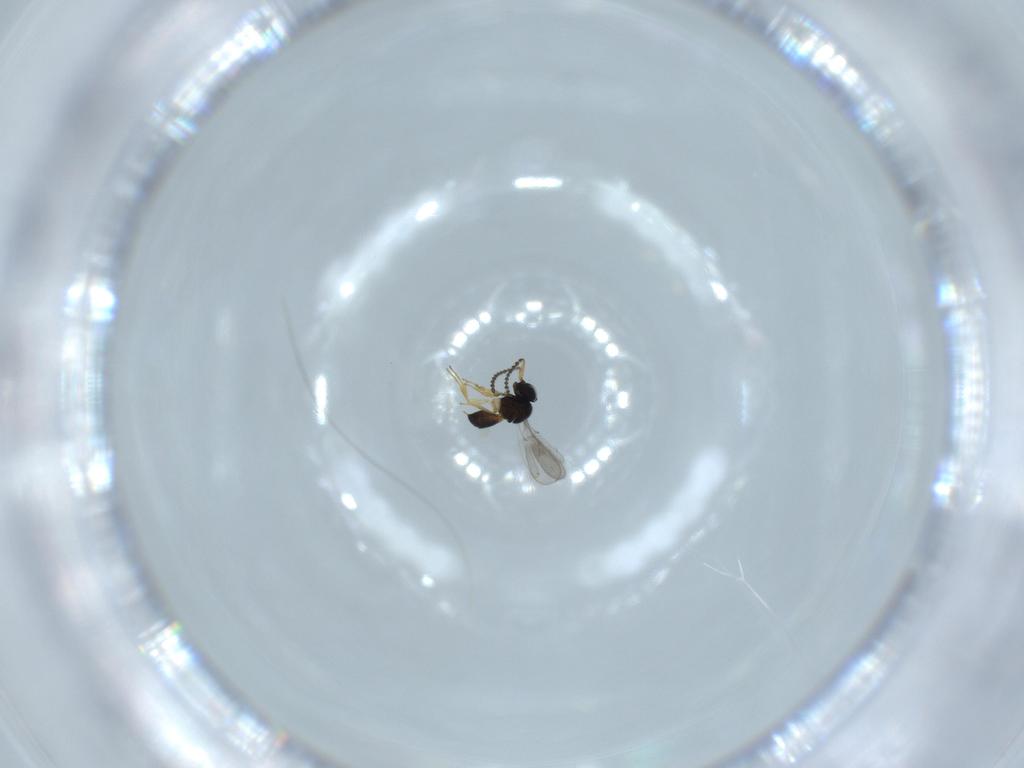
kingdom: Animalia
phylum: Arthropoda
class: Insecta
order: Hymenoptera
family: Scelionidae
